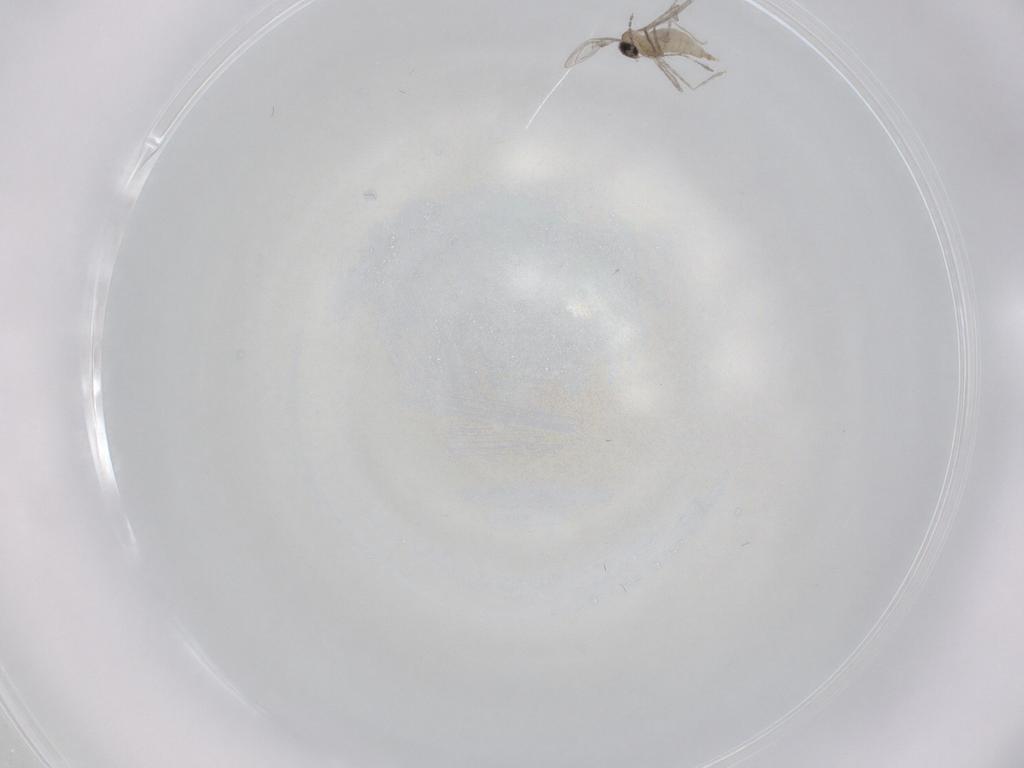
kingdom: Animalia
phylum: Arthropoda
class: Insecta
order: Diptera
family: Cecidomyiidae
